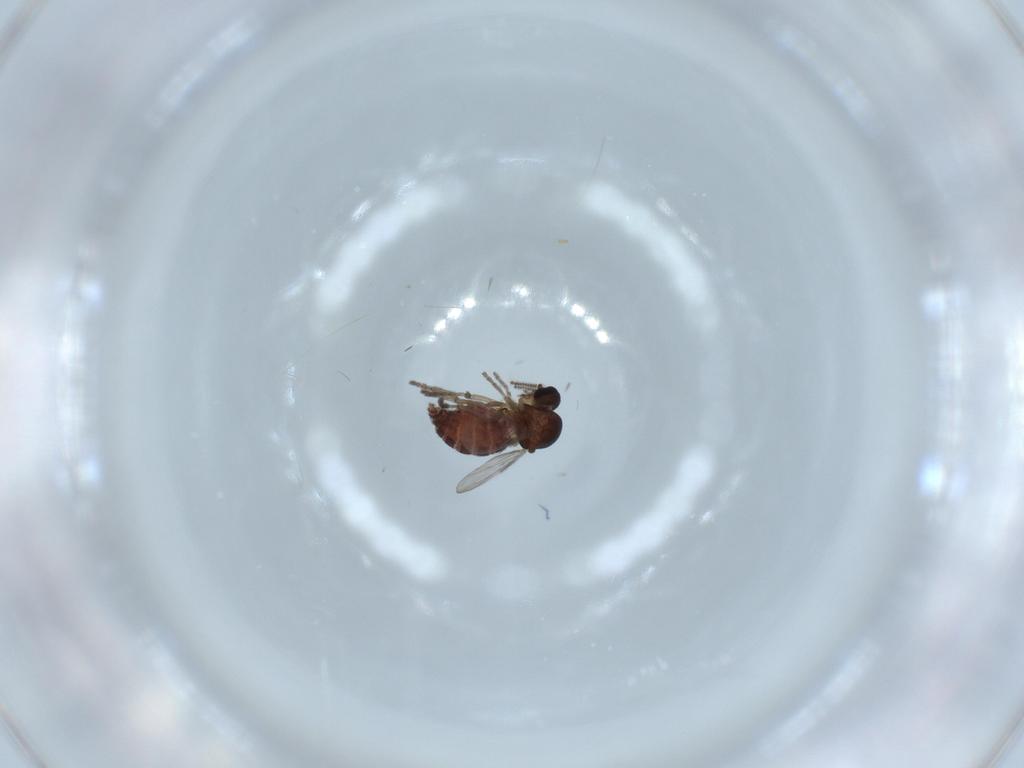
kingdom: Animalia
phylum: Arthropoda
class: Insecta
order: Diptera
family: Ceratopogonidae
